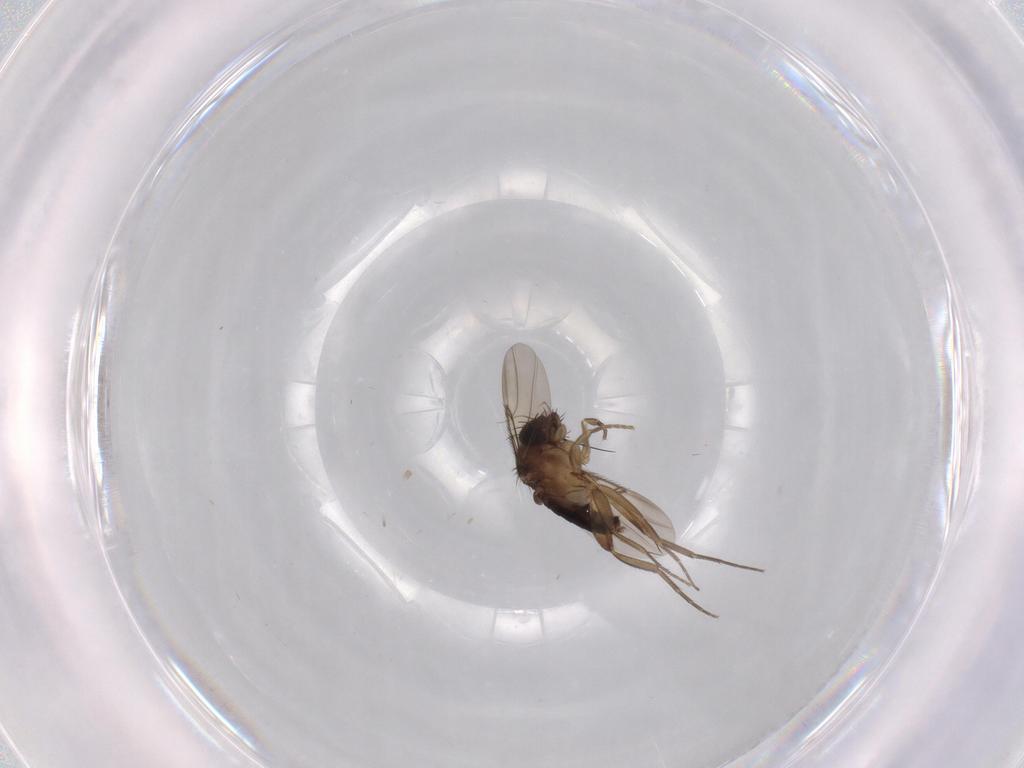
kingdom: Animalia
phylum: Arthropoda
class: Insecta
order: Diptera
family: Phoridae
